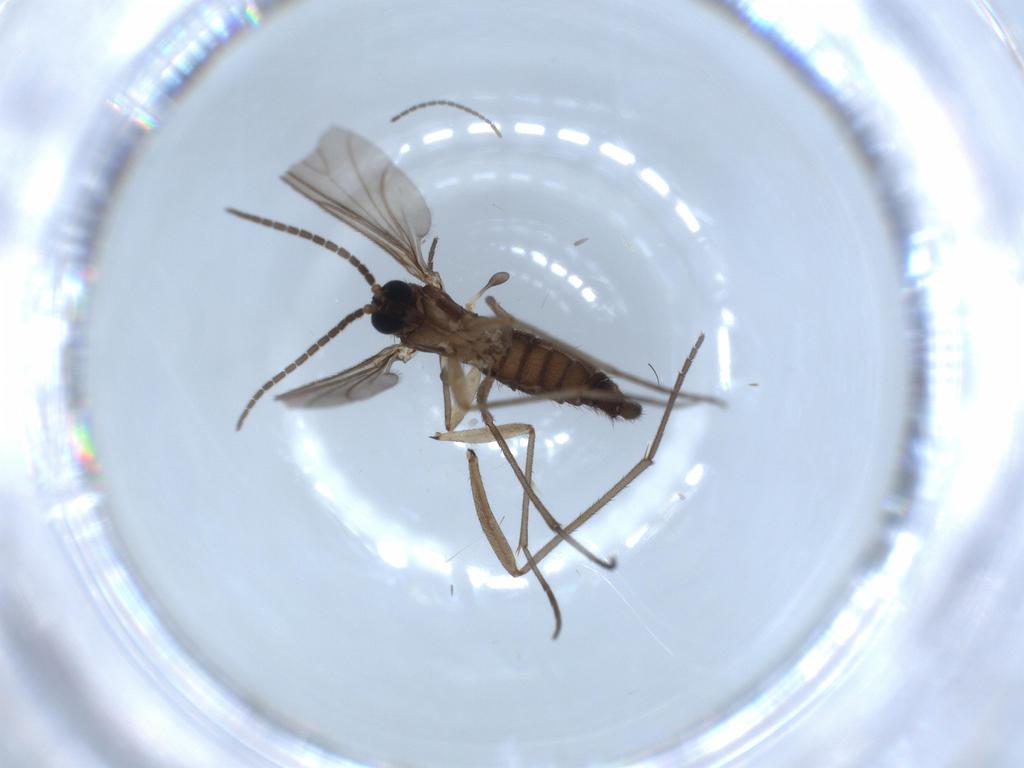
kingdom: Animalia
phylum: Arthropoda
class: Insecta
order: Diptera
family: Sciaridae
